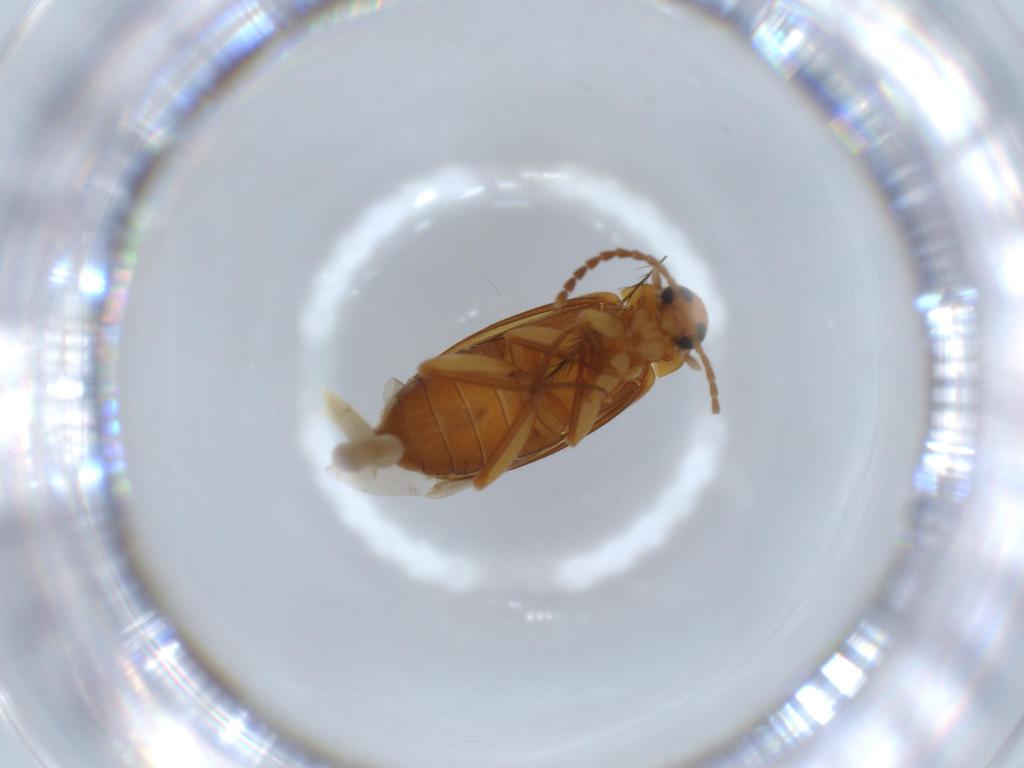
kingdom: Animalia
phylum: Arthropoda
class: Insecta
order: Coleoptera
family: Scraptiidae
